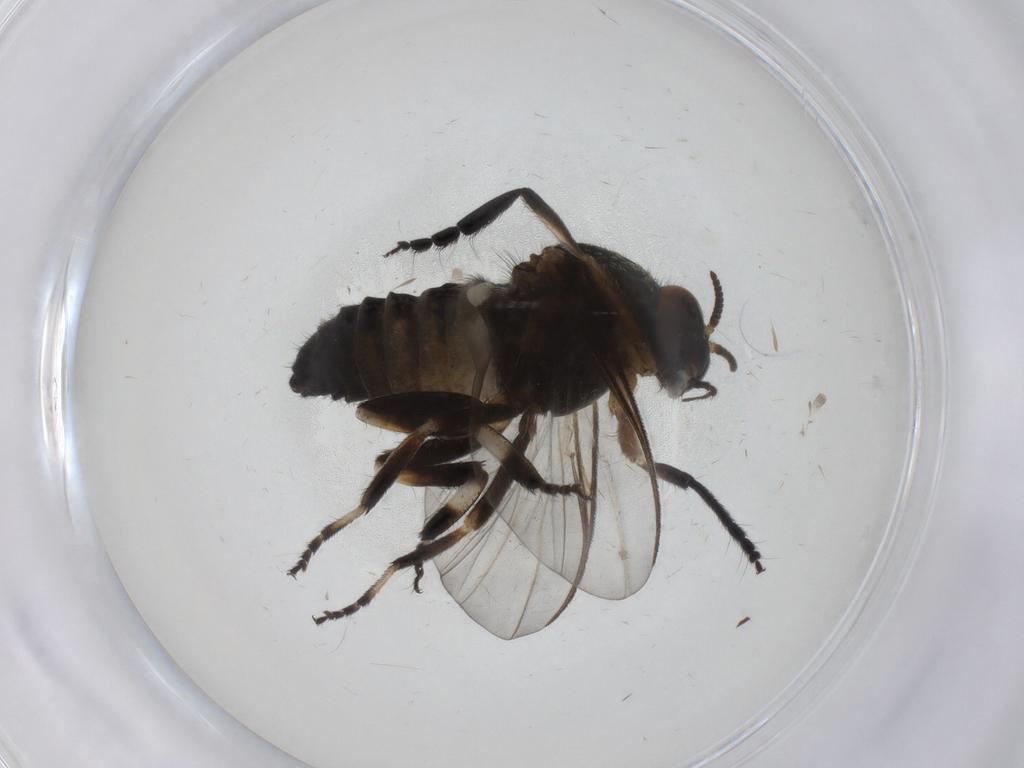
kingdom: Animalia
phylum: Arthropoda
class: Insecta
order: Diptera
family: Simuliidae
